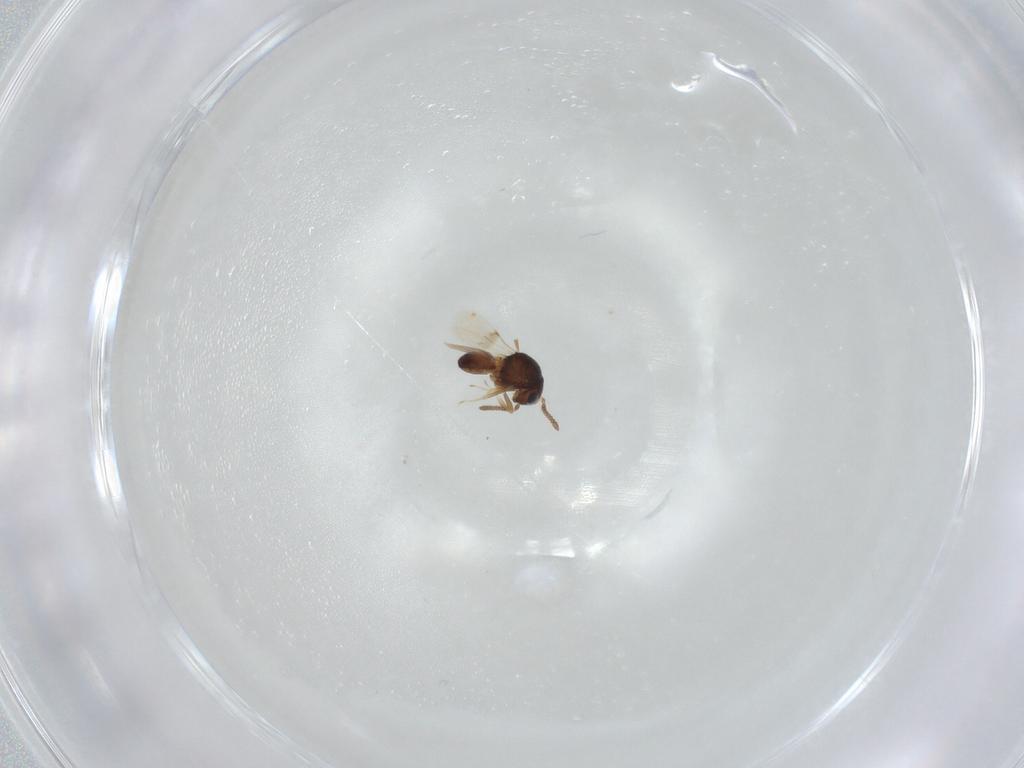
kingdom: Animalia
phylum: Arthropoda
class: Insecta
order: Hymenoptera
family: Scelionidae
